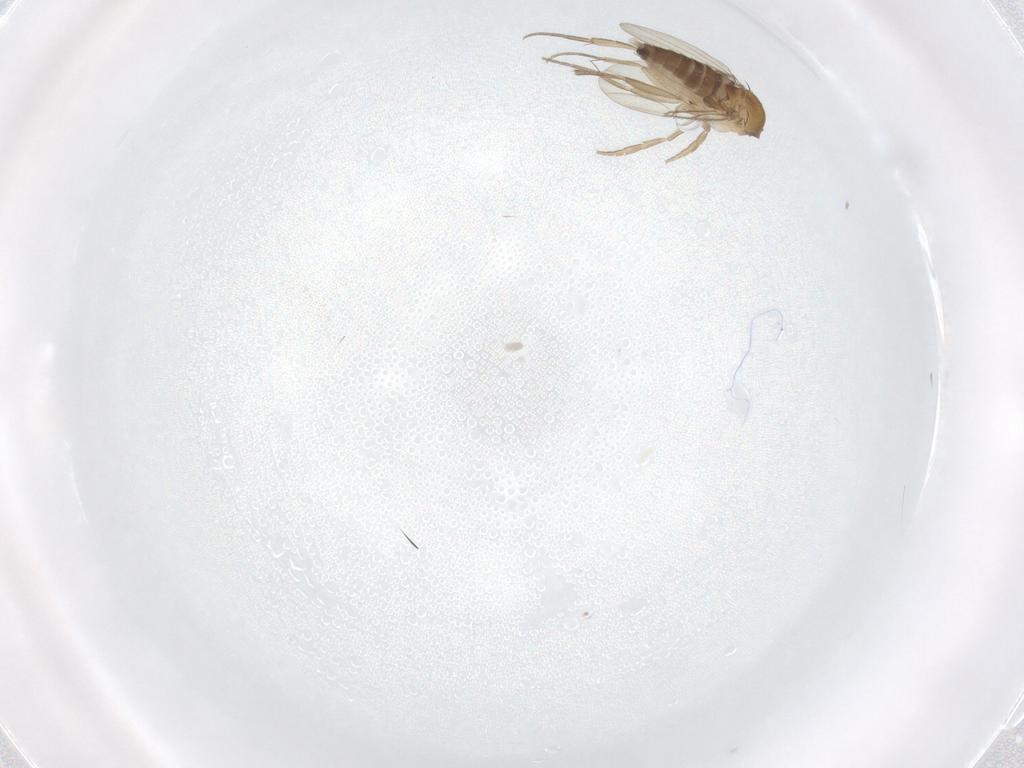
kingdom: Animalia
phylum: Arthropoda
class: Insecta
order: Diptera
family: Phoridae
